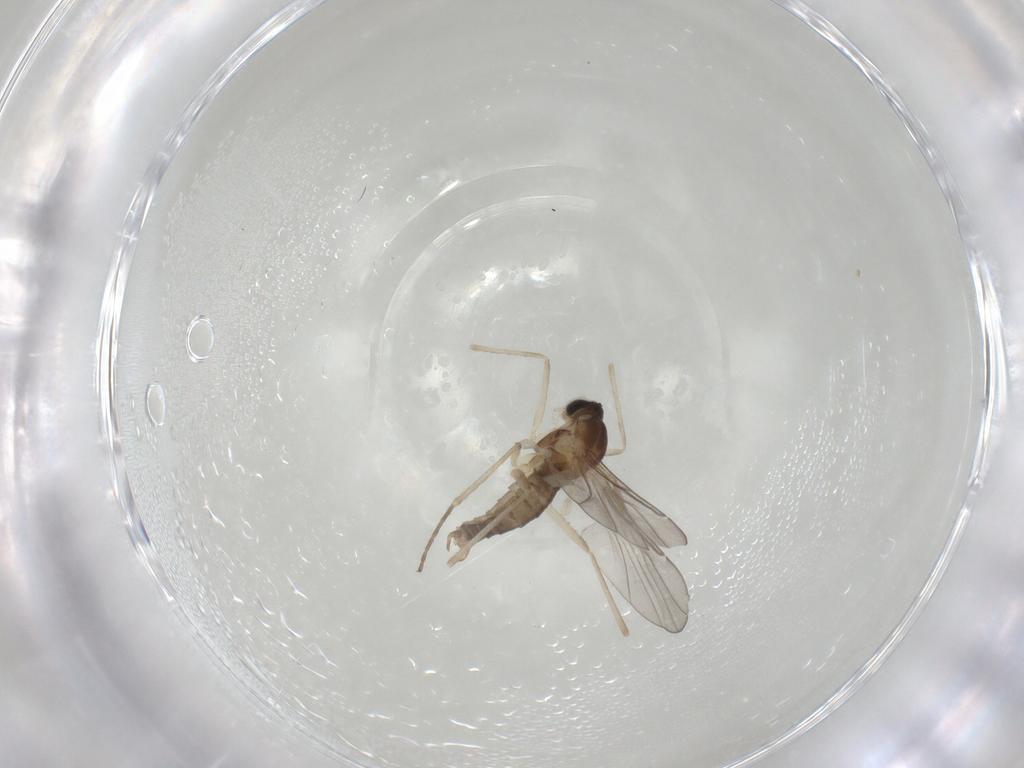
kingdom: Animalia
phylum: Arthropoda
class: Insecta
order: Diptera
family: Cecidomyiidae
